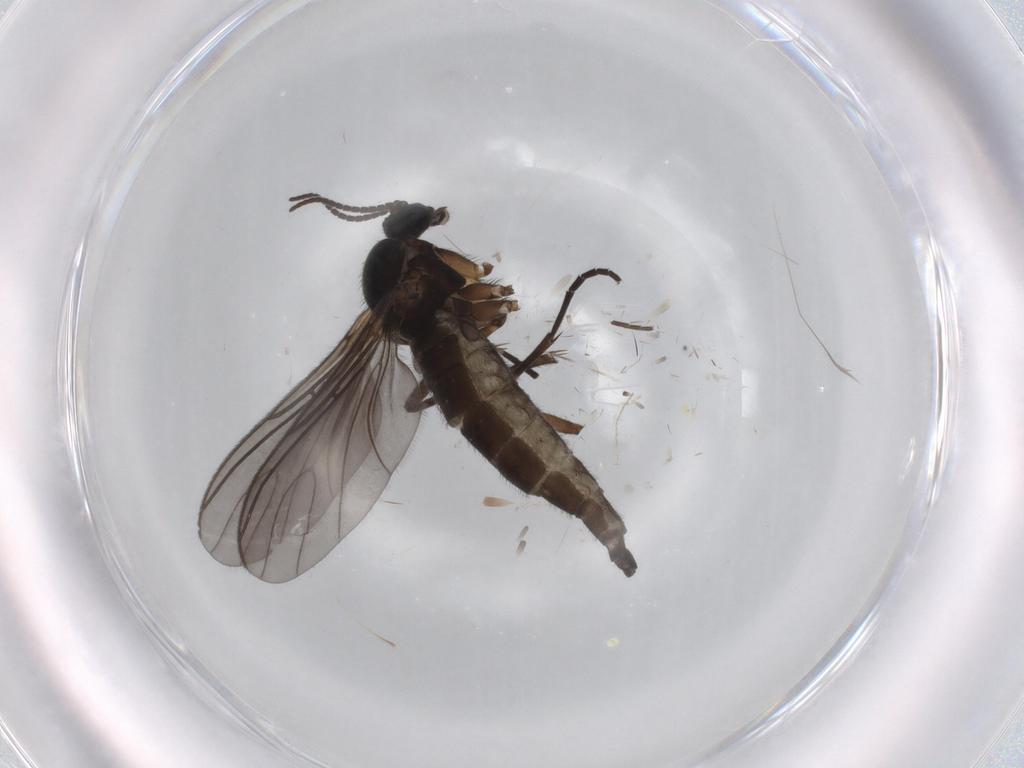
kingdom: Animalia
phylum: Arthropoda
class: Insecta
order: Diptera
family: Sciaridae
